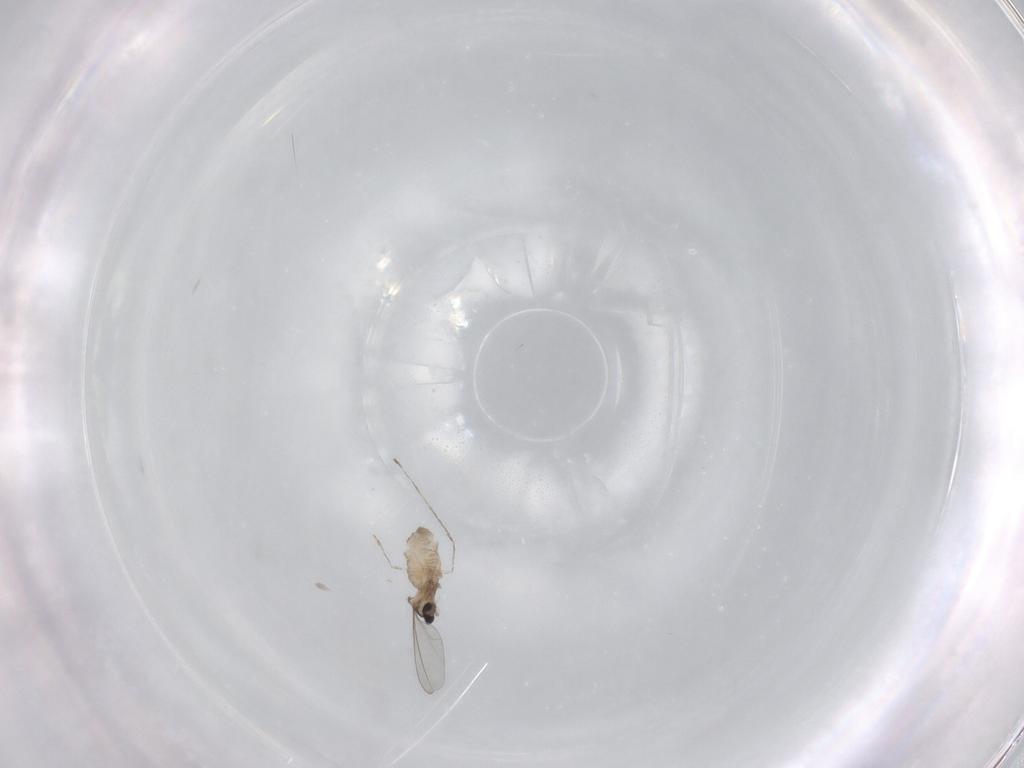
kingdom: Animalia
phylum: Arthropoda
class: Insecta
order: Diptera
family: Cecidomyiidae
